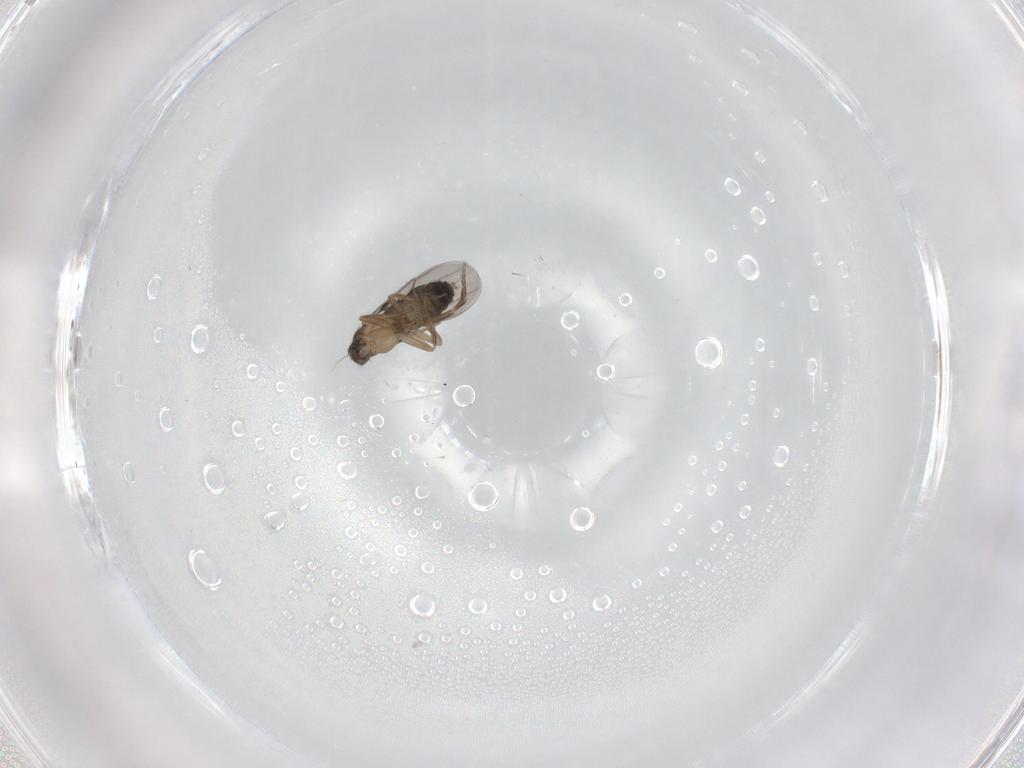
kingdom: Animalia
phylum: Arthropoda
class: Insecta
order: Diptera
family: Phoridae
